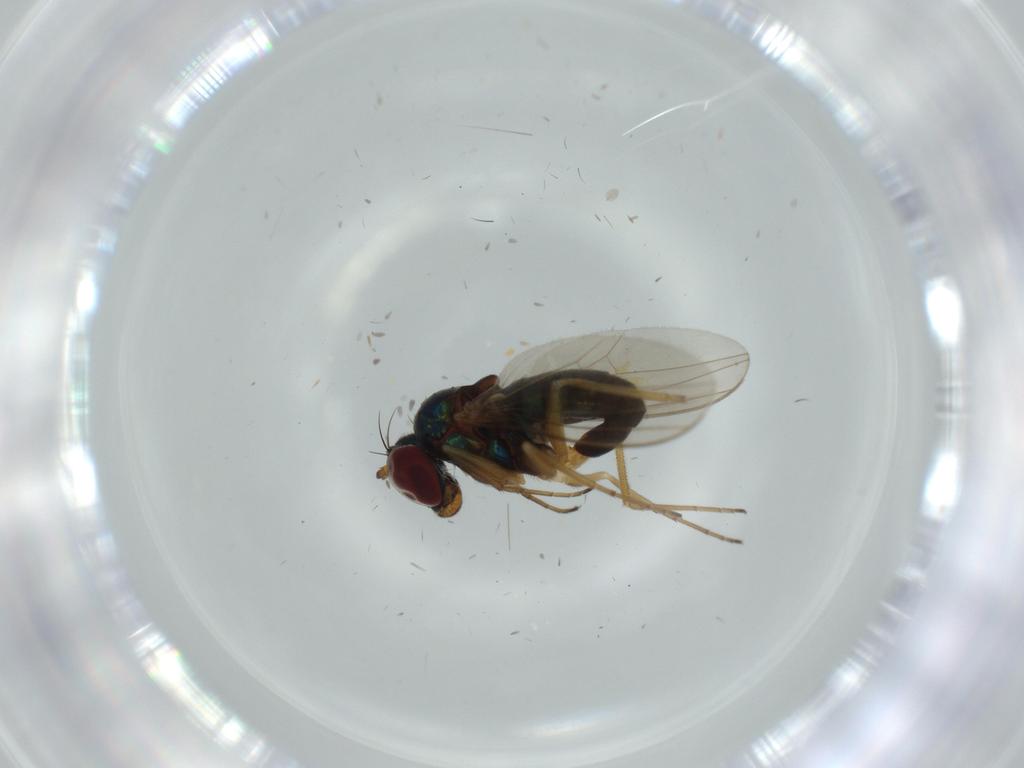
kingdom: Animalia
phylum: Arthropoda
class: Insecta
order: Diptera
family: Dolichopodidae
